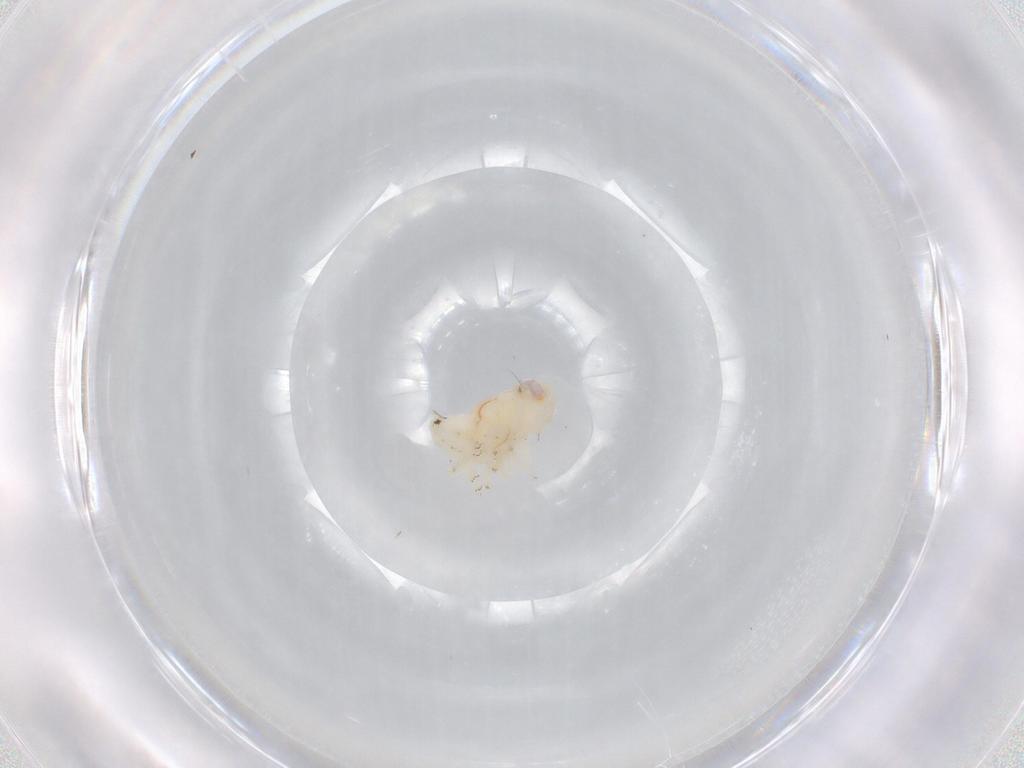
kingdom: Animalia
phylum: Arthropoda
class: Insecta
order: Hemiptera
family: Nogodinidae
